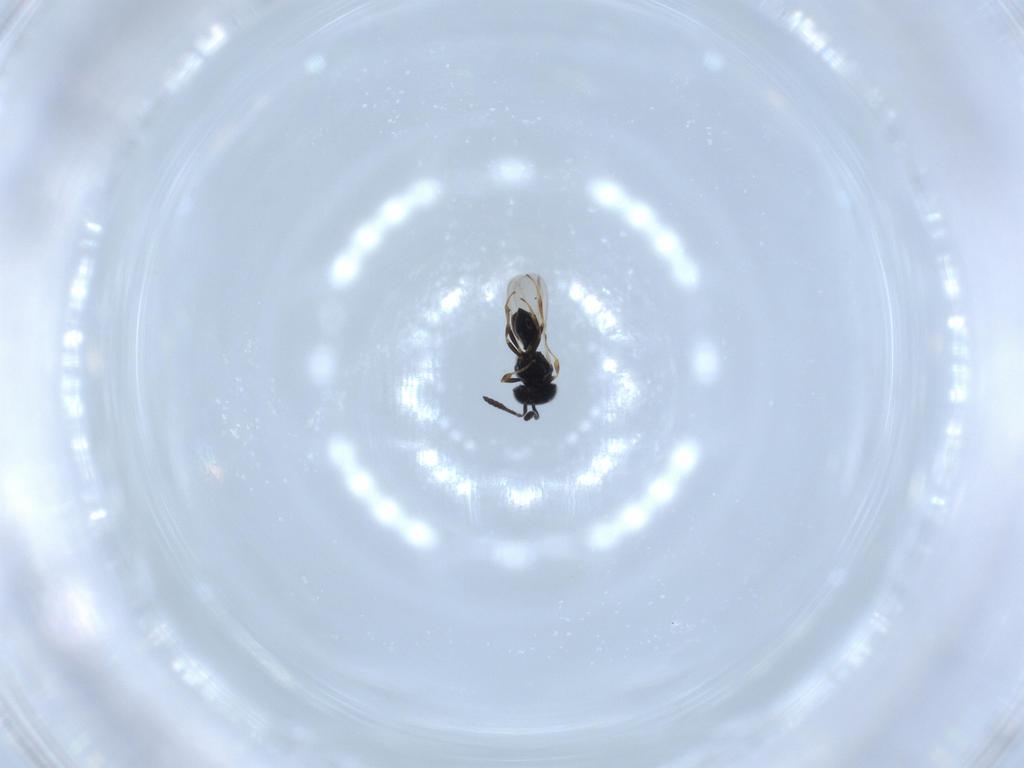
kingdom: Animalia
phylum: Arthropoda
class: Insecta
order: Hymenoptera
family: Scelionidae
